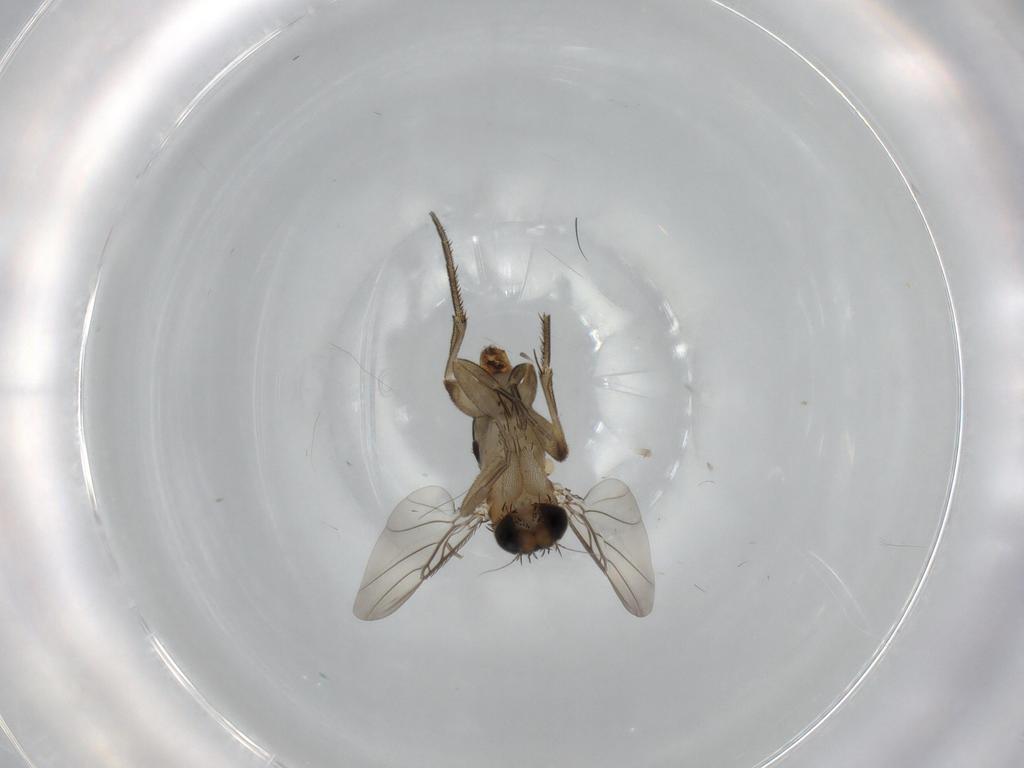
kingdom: Animalia
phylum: Arthropoda
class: Insecta
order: Diptera
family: Phoridae
